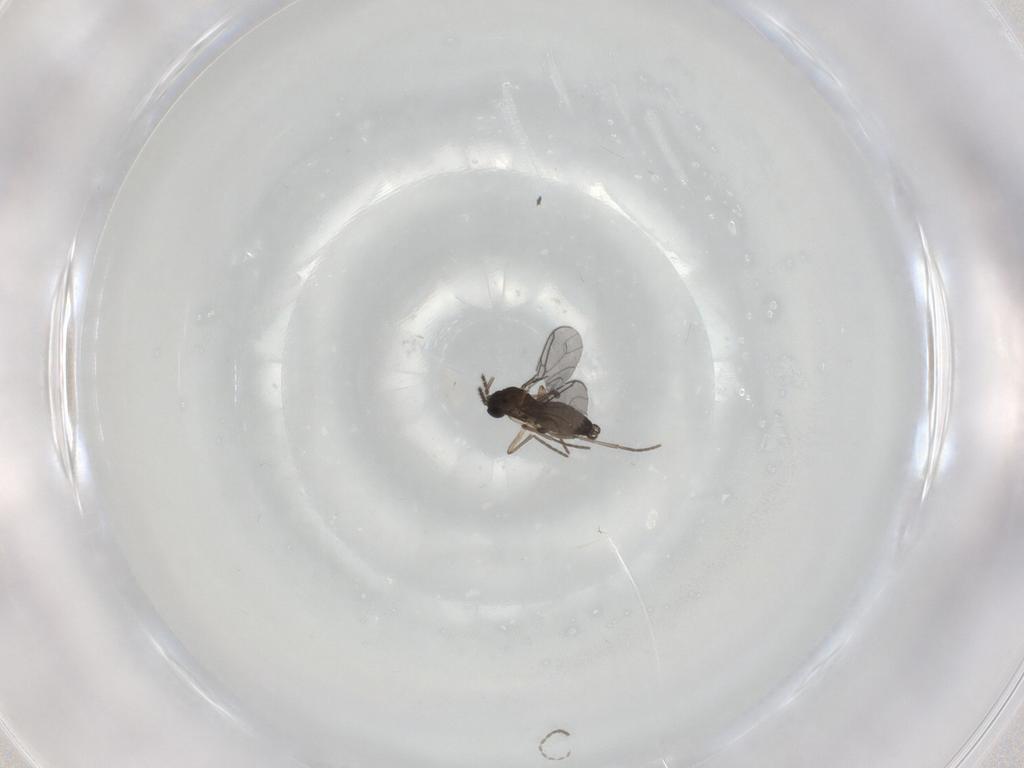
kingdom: Animalia
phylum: Arthropoda
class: Insecta
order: Diptera
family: Sciaridae
